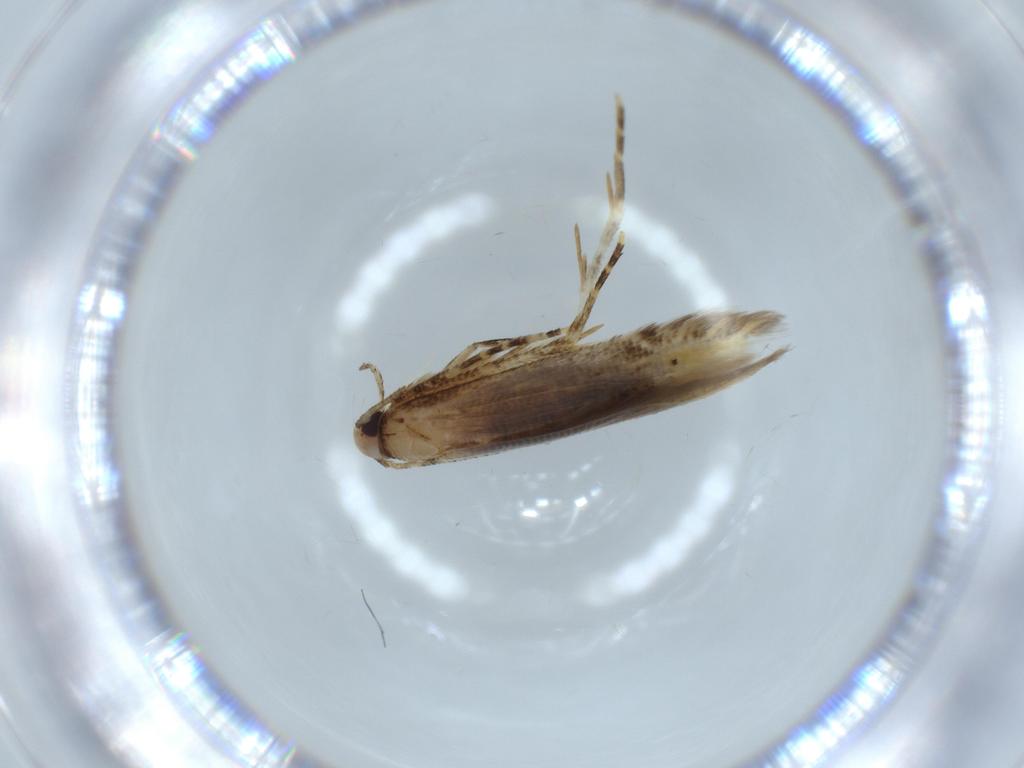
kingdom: Animalia
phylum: Arthropoda
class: Insecta
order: Lepidoptera
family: Stathmopodidae
